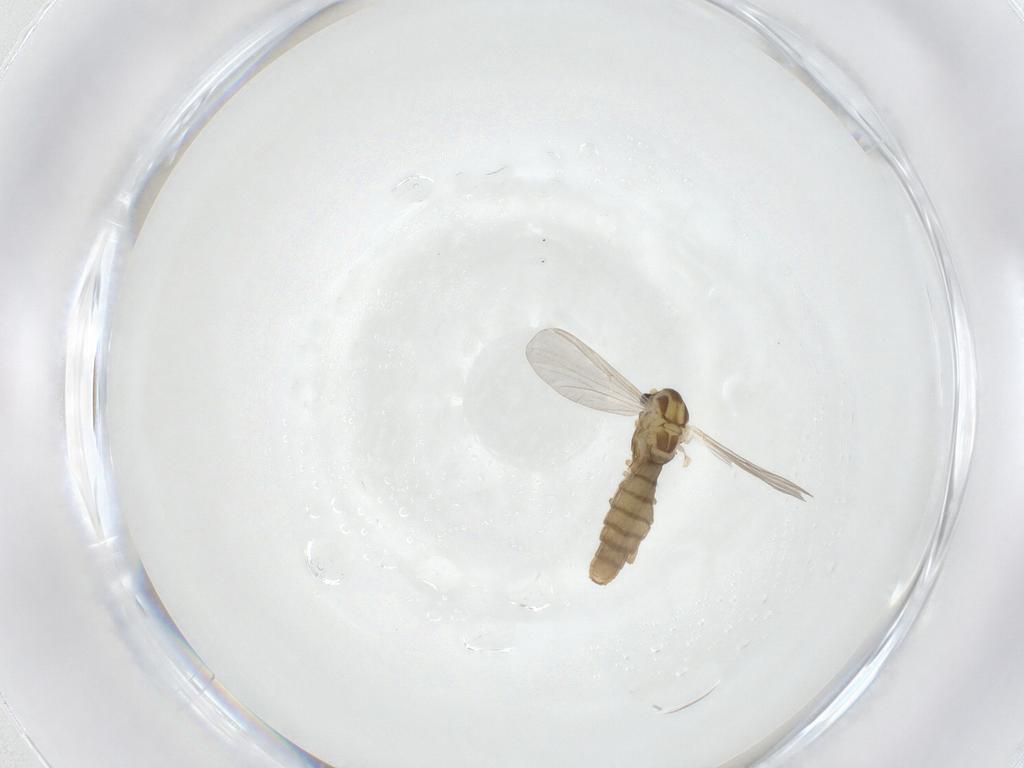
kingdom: Animalia
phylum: Arthropoda
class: Insecta
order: Diptera
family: Chironomidae
